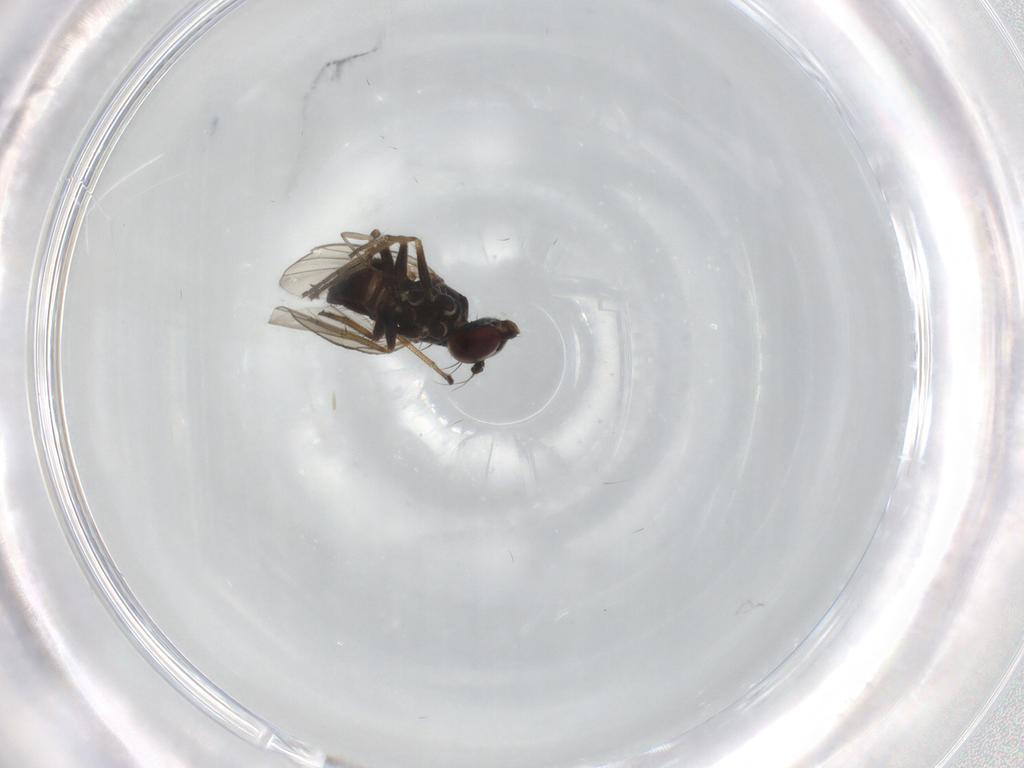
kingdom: Animalia
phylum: Arthropoda
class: Insecta
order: Diptera
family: Dolichopodidae
